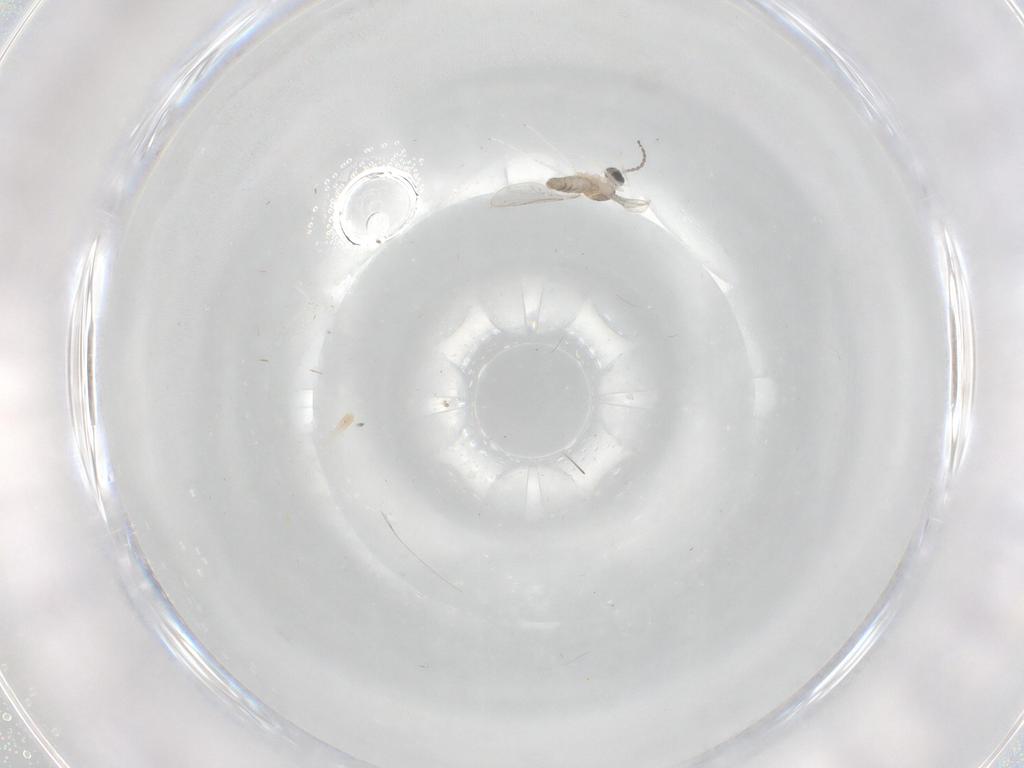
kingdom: Animalia
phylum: Arthropoda
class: Insecta
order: Diptera
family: Cecidomyiidae
